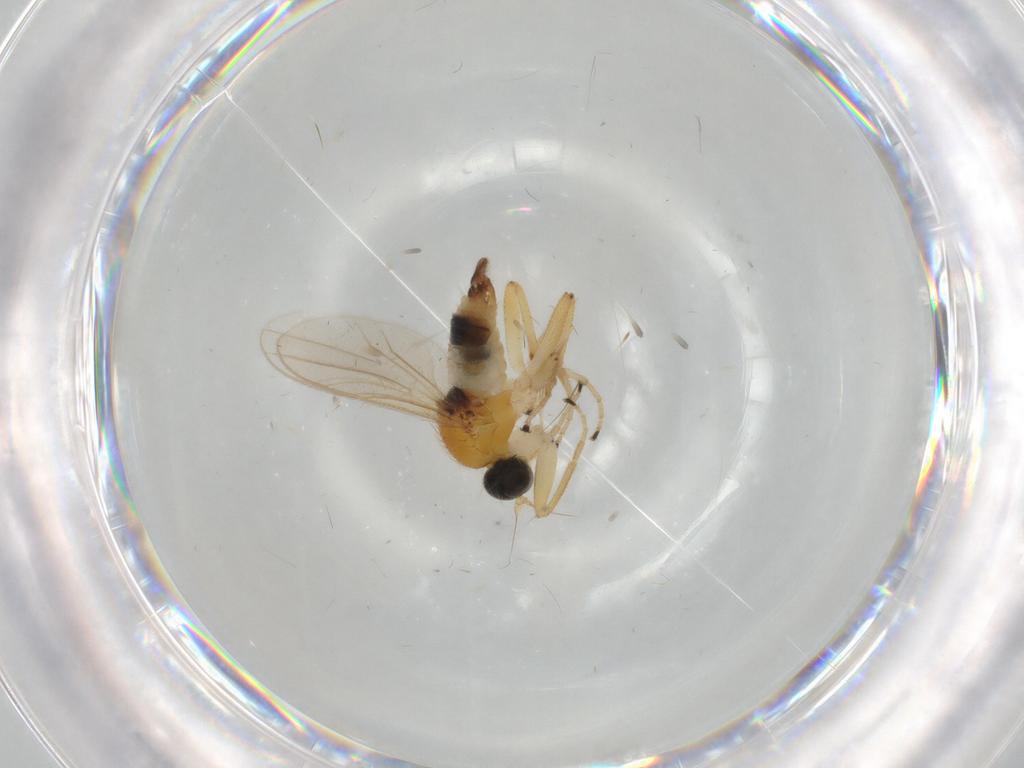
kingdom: Animalia
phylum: Arthropoda
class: Insecta
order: Diptera
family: Hybotidae
